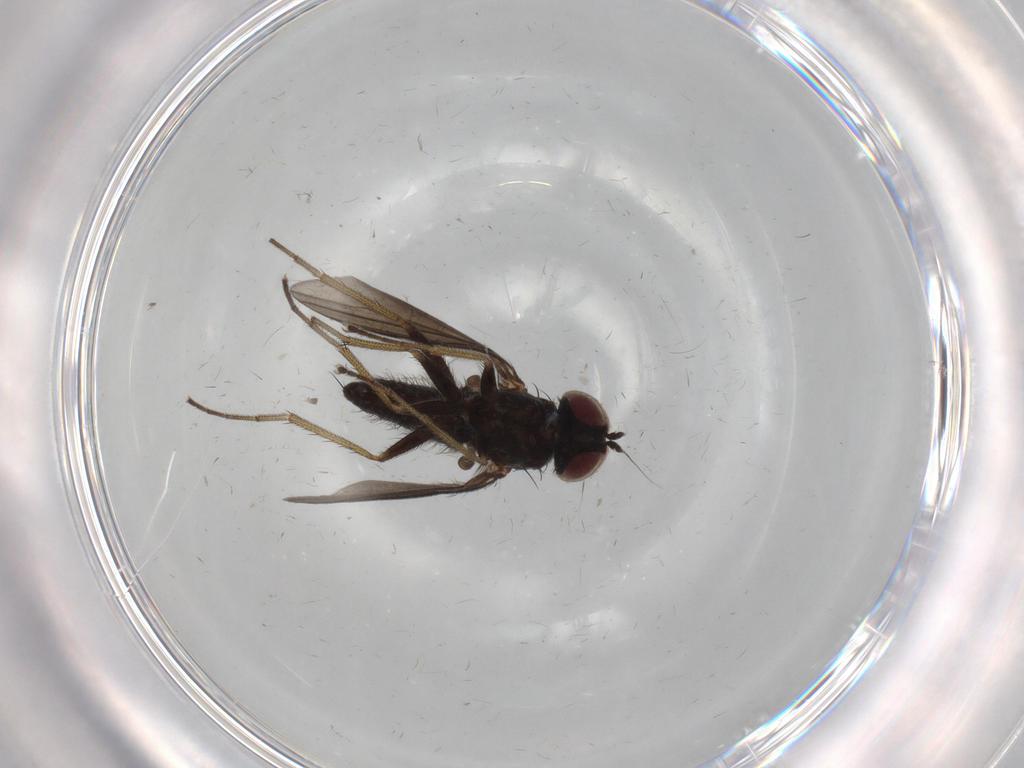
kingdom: Animalia
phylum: Arthropoda
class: Insecta
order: Diptera
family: Dolichopodidae
